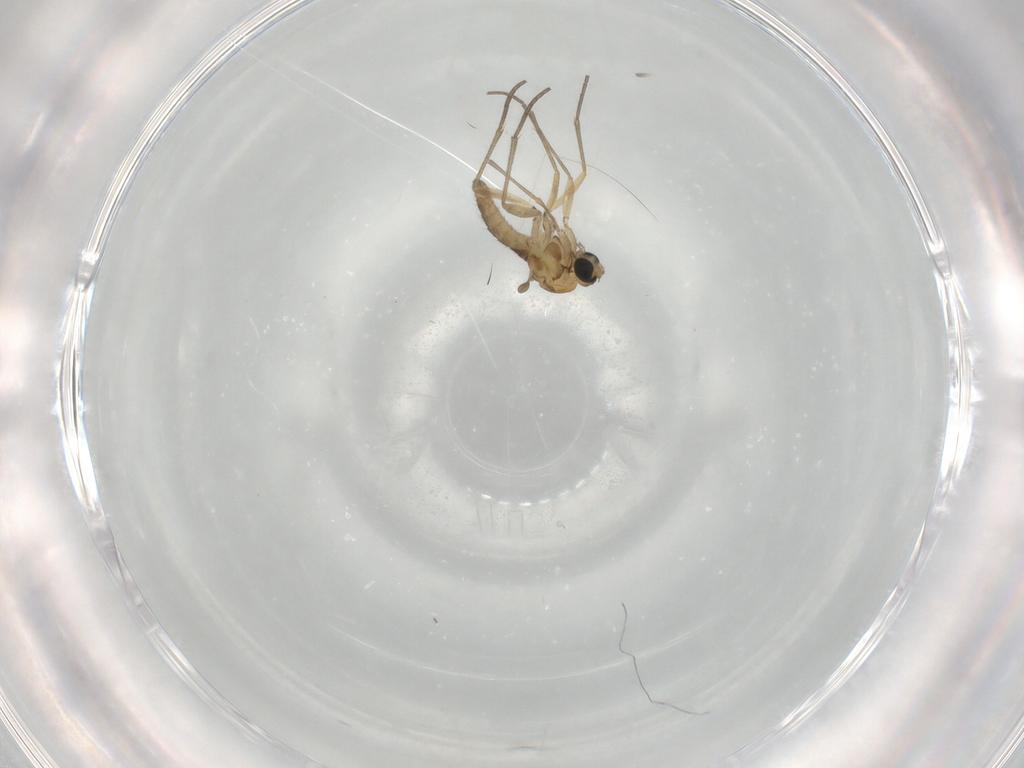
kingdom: Animalia
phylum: Arthropoda
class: Insecta
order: Diptera
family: Sciaridae
